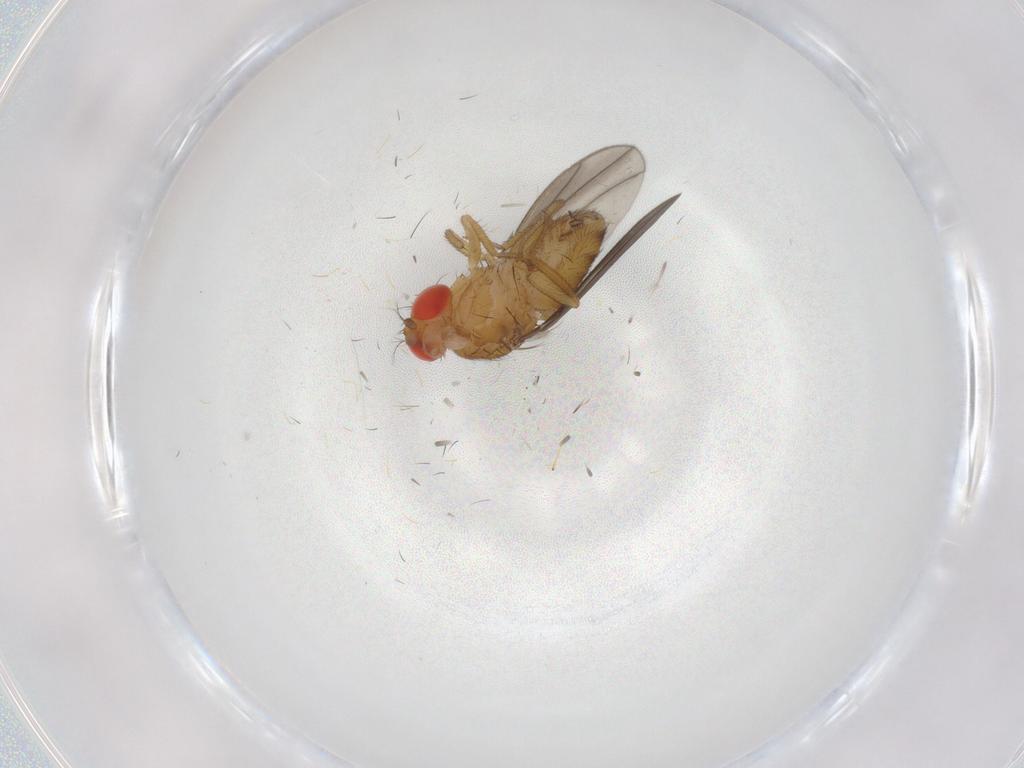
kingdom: Animalia
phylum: Arthropoda
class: Insecta
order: Diptera
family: Drosophilidae
